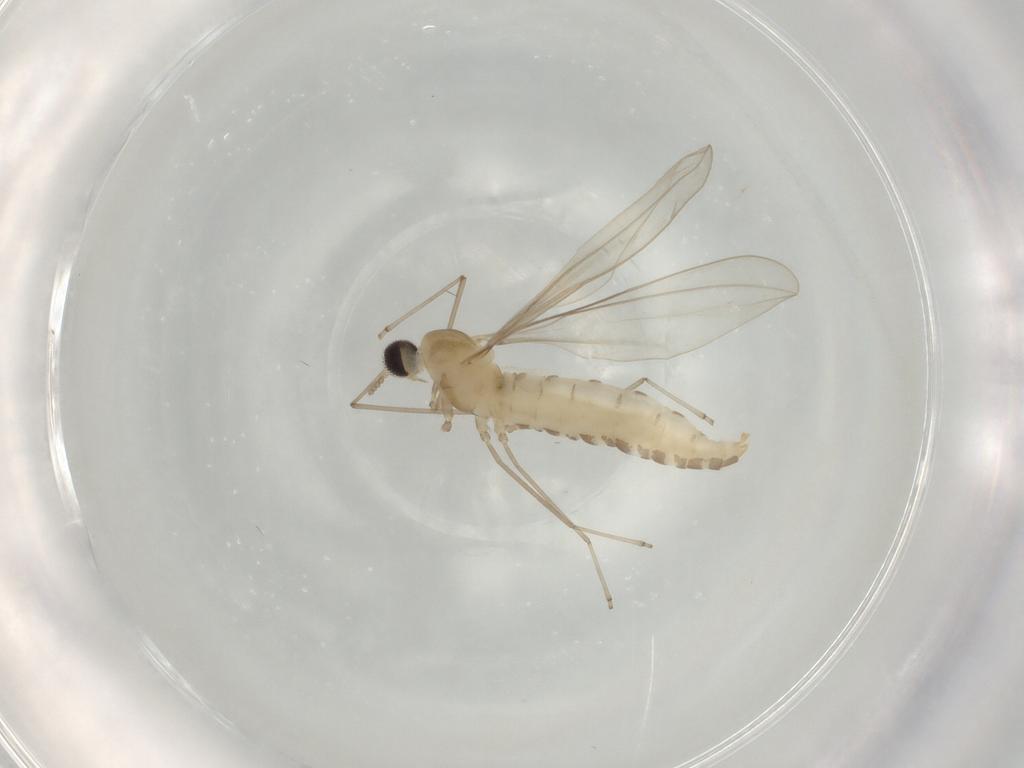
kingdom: Animalia
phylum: Arthropoda
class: Insecta
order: Diptera
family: Cecidomyiidae
